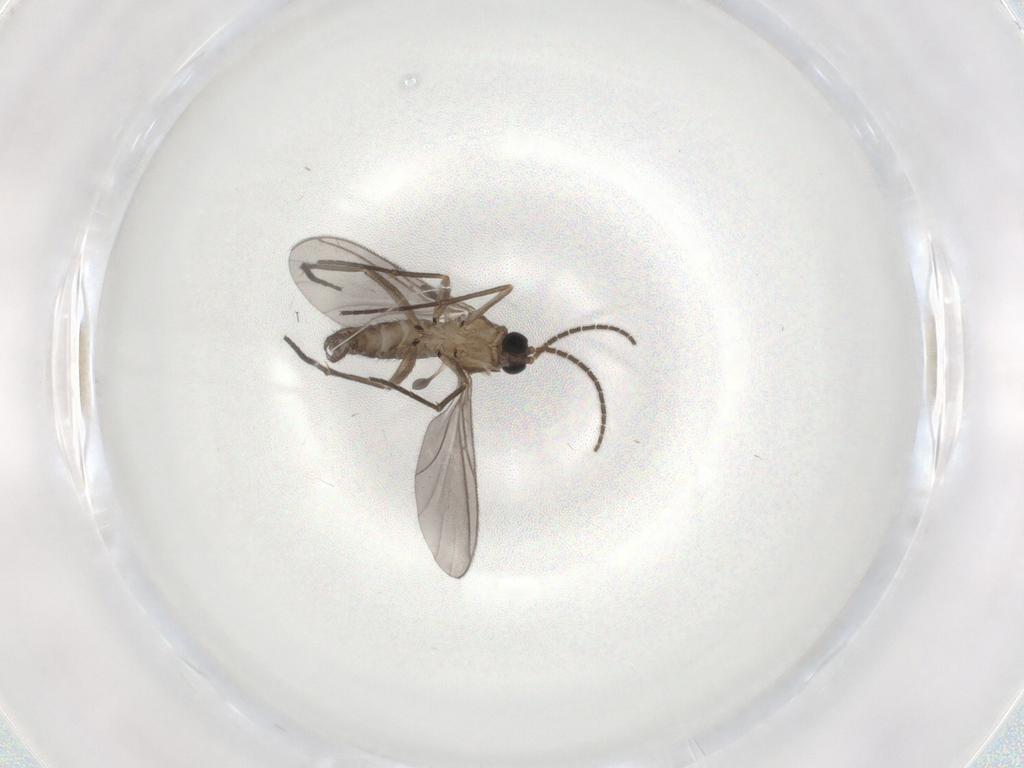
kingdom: Animalia
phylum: Arthropoda
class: Insecta
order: Diptera
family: Sciaridae
